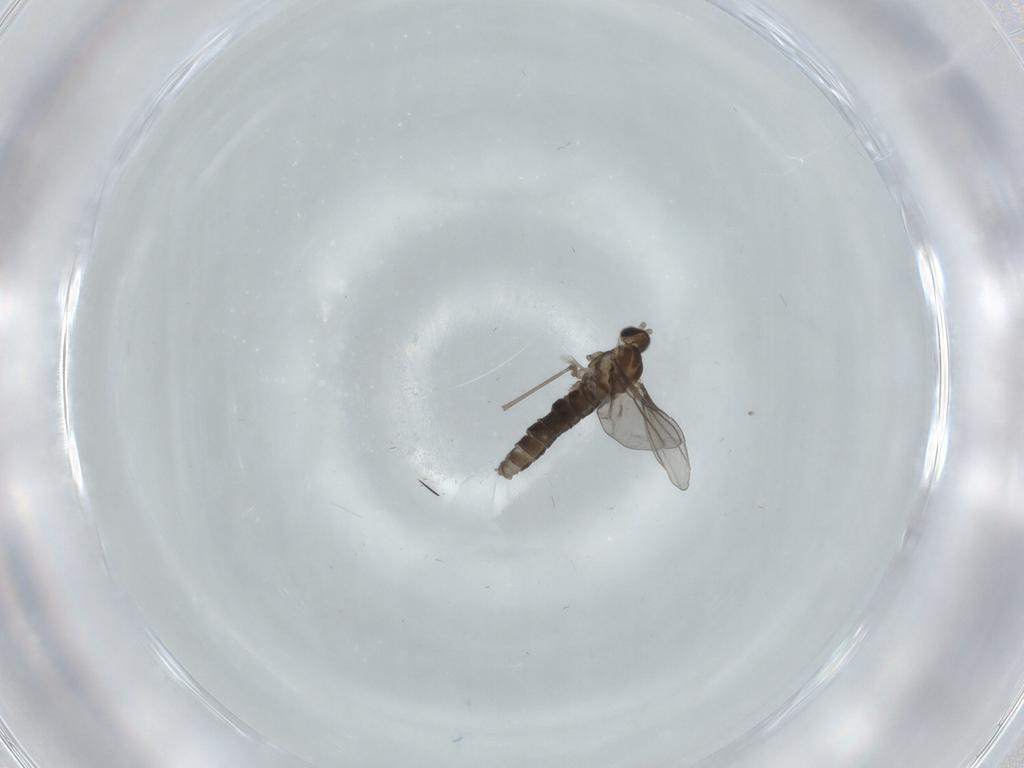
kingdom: Animalia
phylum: Arthropoda
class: Insecta
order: Diptera
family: Cecidomyiidae
